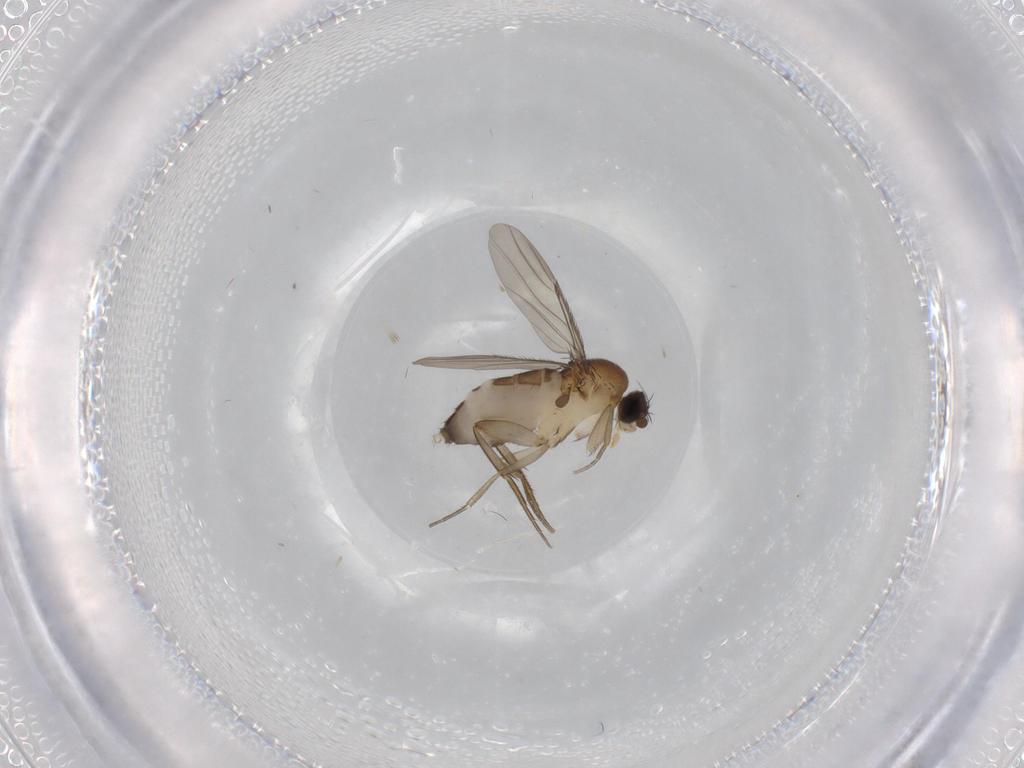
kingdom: Animalia
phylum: Arthropoda
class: Insecta
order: Diptera
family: Phoridae
